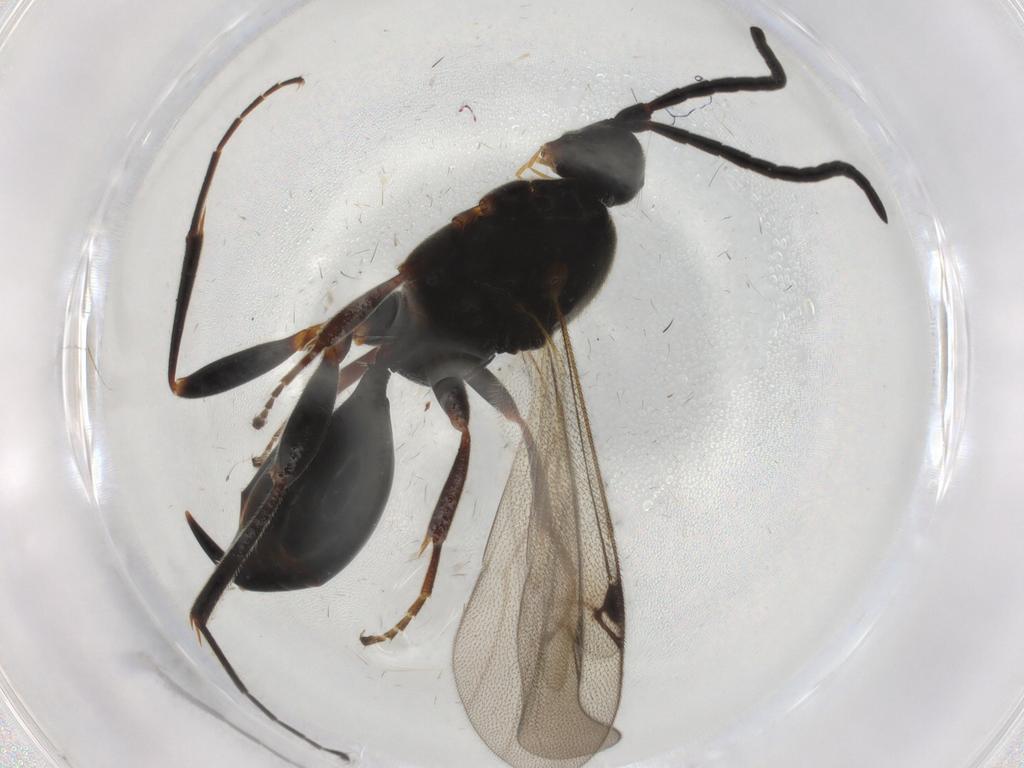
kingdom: Animalia
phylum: Arthropoda
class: Insecta
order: Hymenoptera
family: Proctotrupidae
